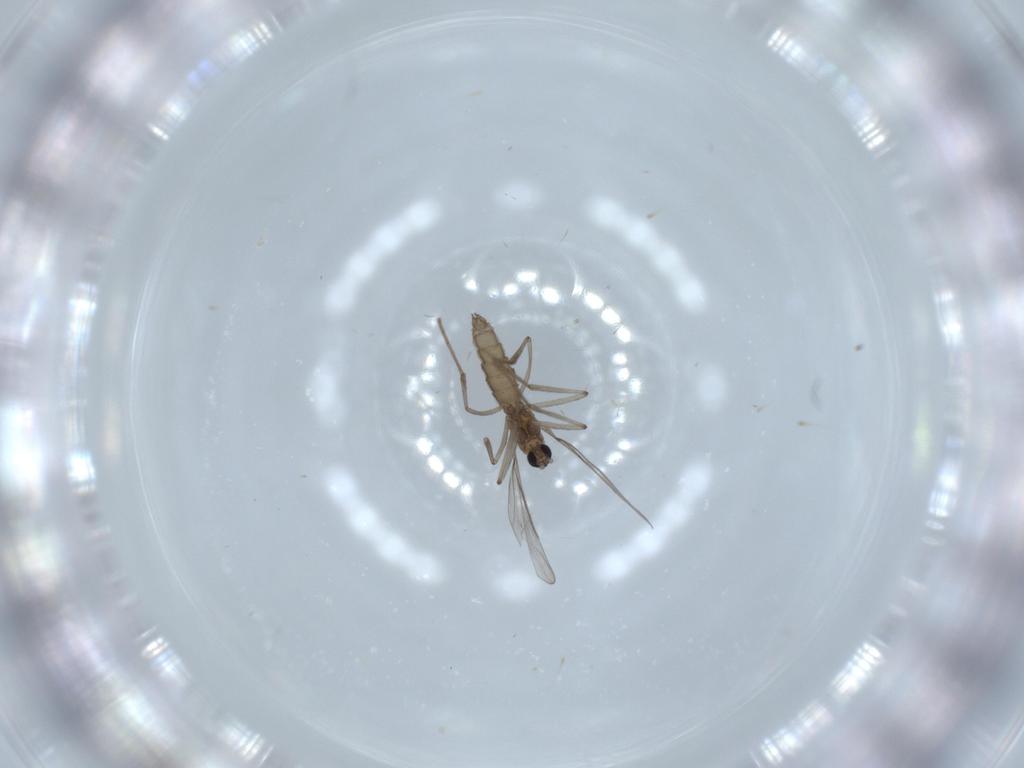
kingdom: Animalia
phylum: Arthropoda
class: Insecta
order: Diptera
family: Cecidomyiidae
